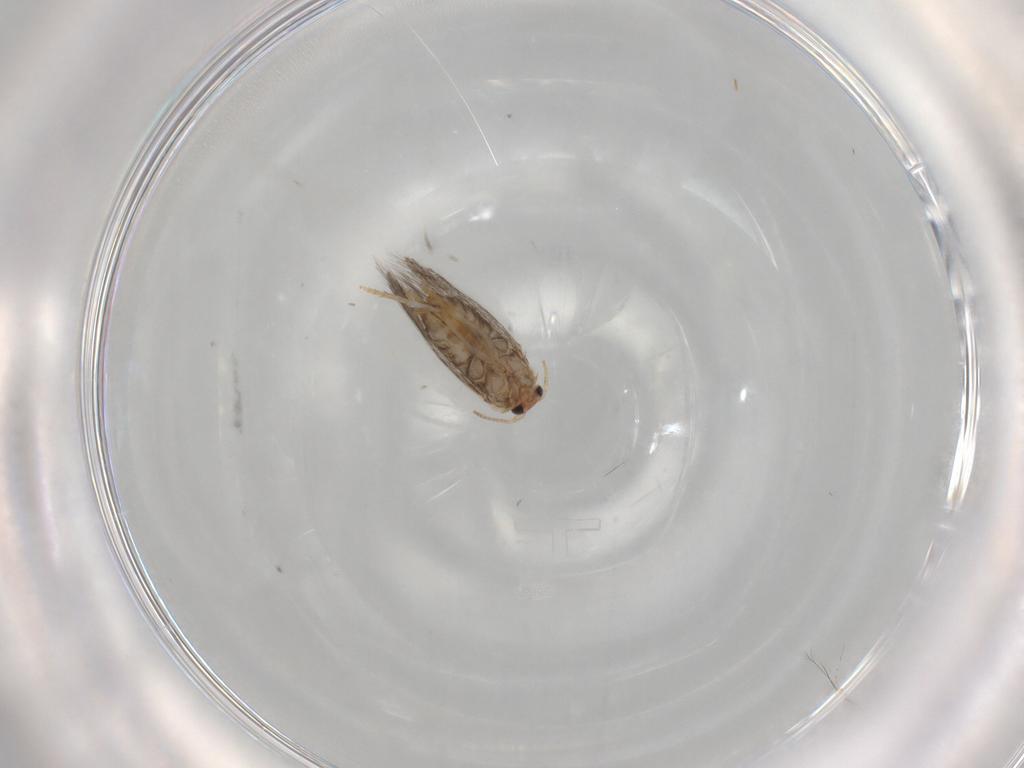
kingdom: Animalia
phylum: Arthropoda
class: Insecta
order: Lepidoptera
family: Nepticulidae
